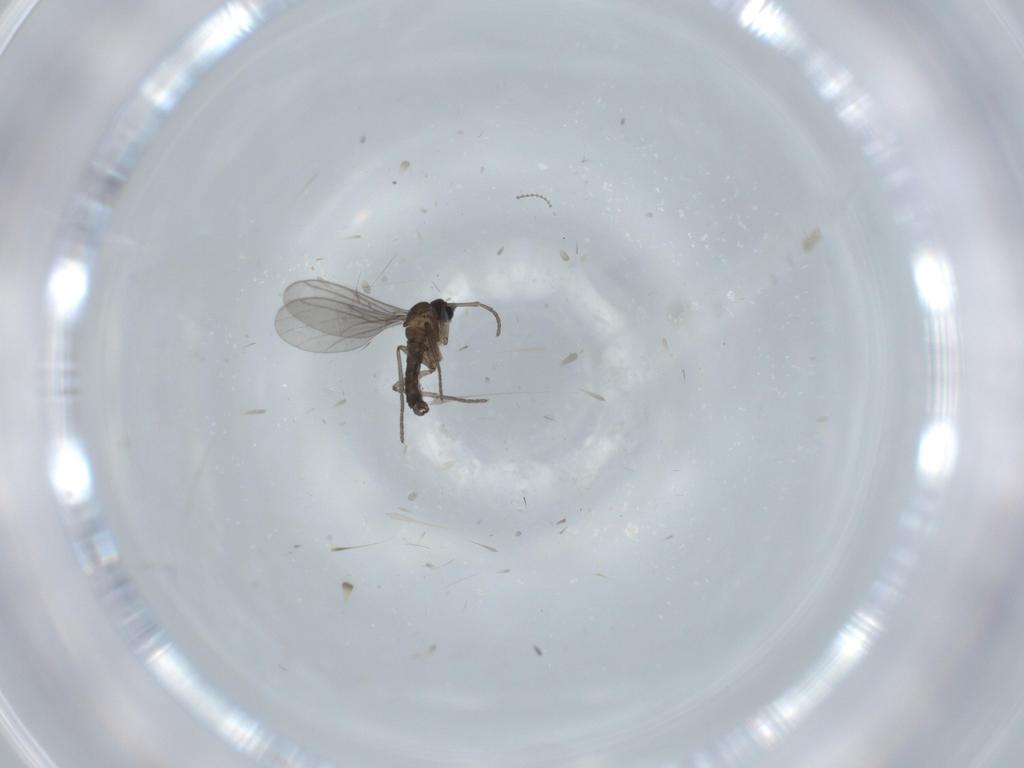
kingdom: Animalia
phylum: Arthropoda
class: Insecta
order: Diptera
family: Cecidomyiidae
